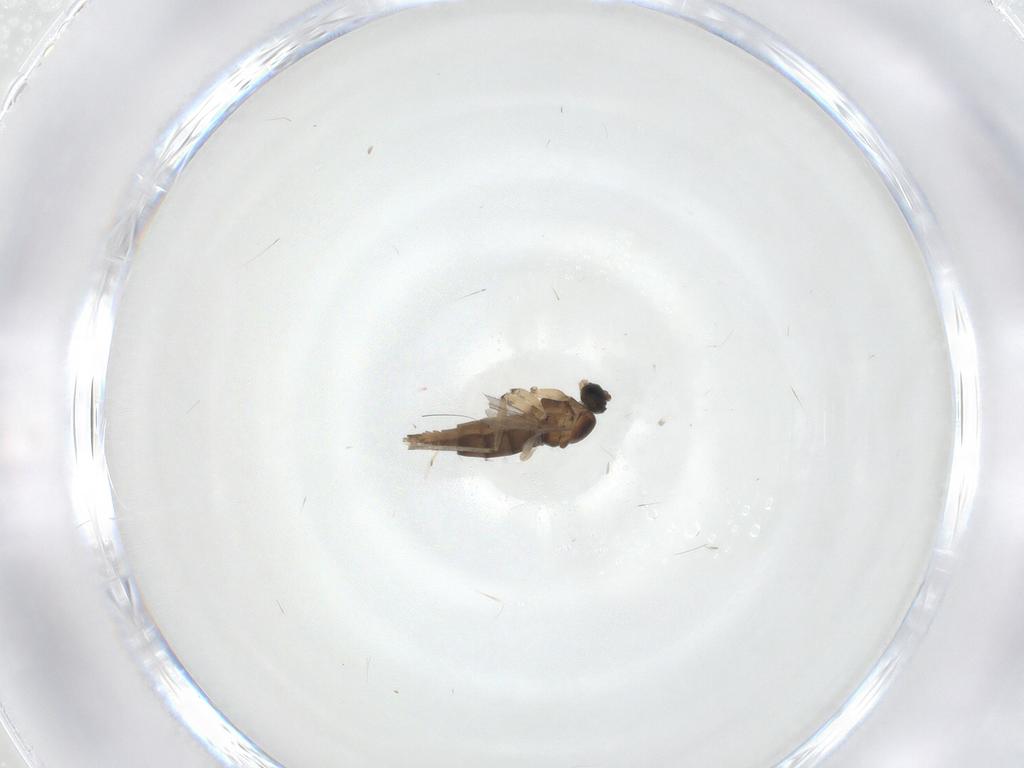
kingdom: Animalia
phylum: Arthropoda
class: Insecta
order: Diptera
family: Sciaridae
